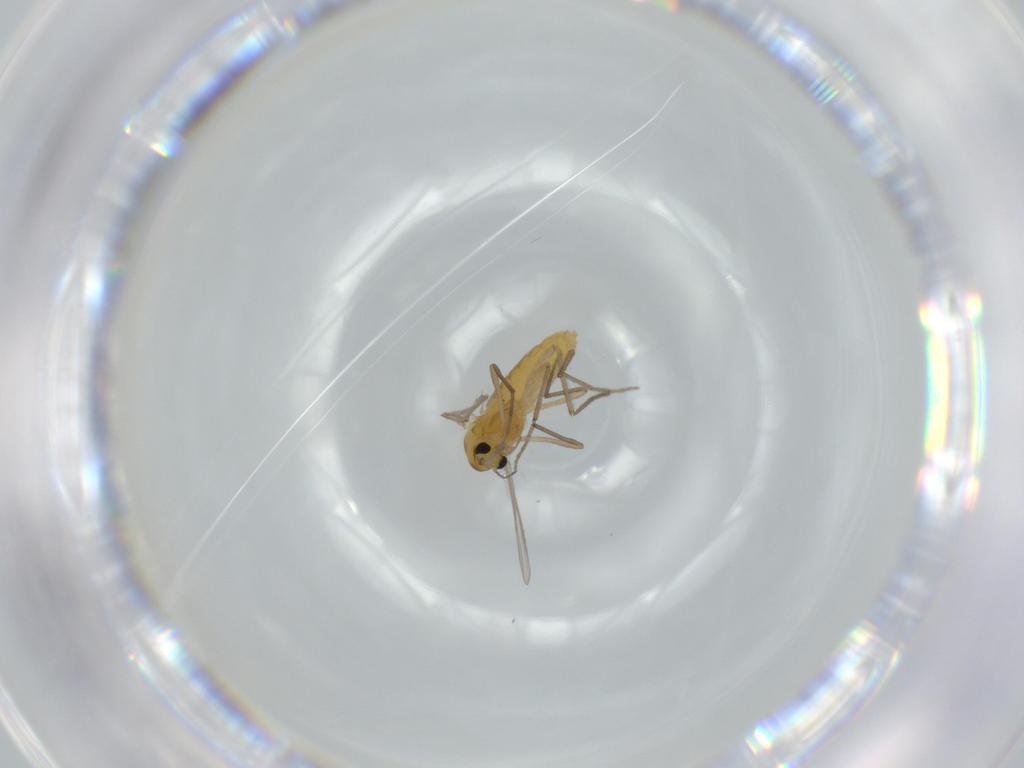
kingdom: Animalia
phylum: Arthropoda
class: Insecta
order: Diptera
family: Chironomidae
